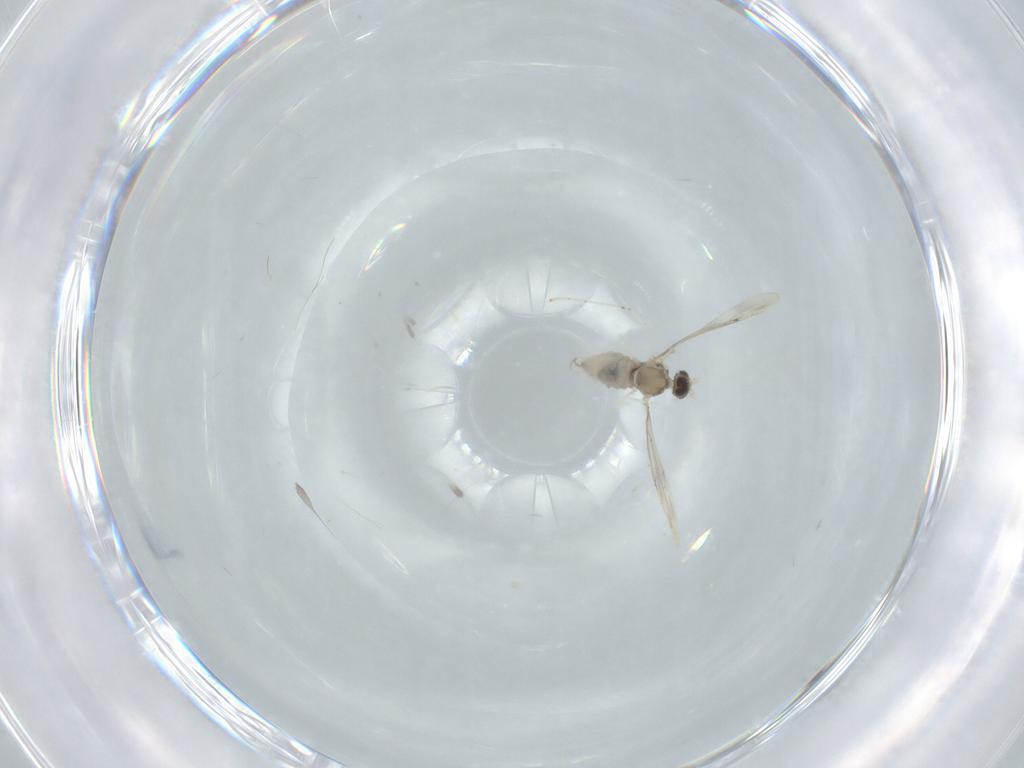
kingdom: Animalia
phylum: Arthropoda
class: Insecta
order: Diptera
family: Cecidomyiidae
